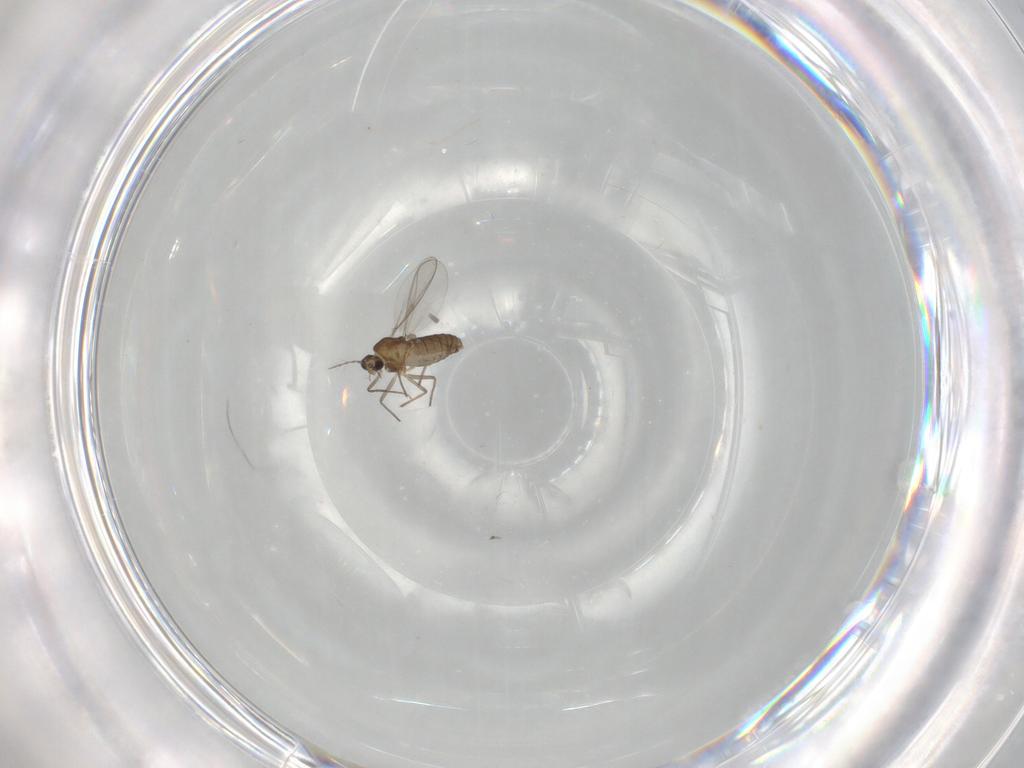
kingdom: Animalia
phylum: Arthropoda
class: Insecta
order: Diptera
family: Chironomidae
